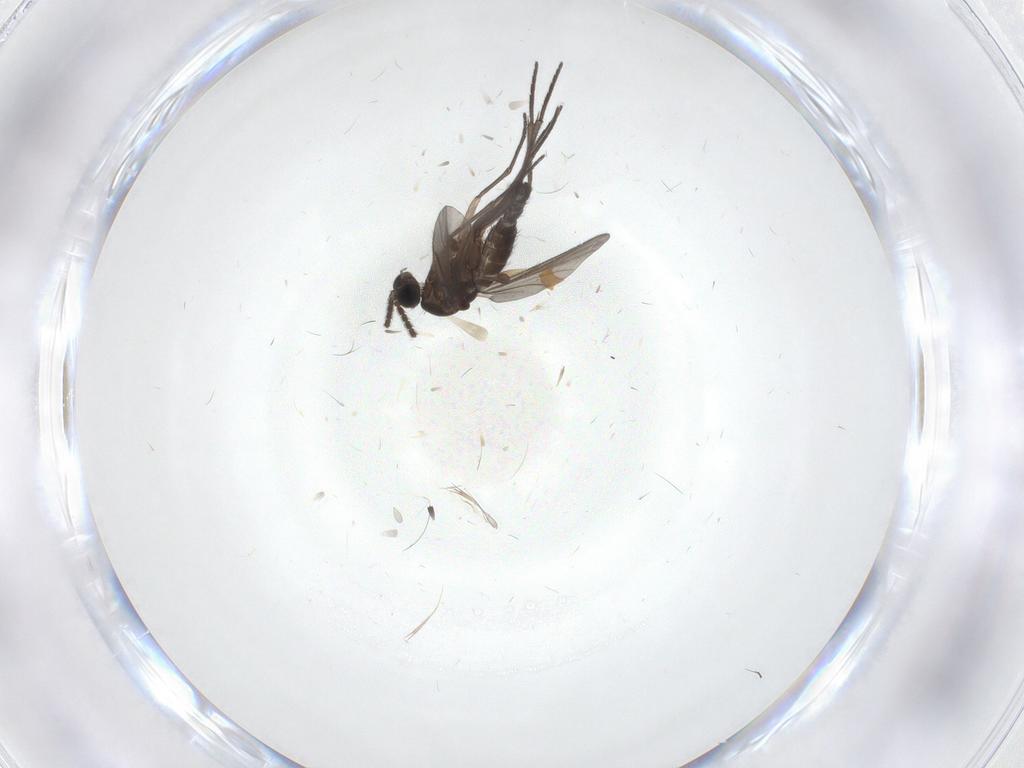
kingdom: Animalia
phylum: Arthropoda
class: Insecta
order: Diptera
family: Sciaridae
